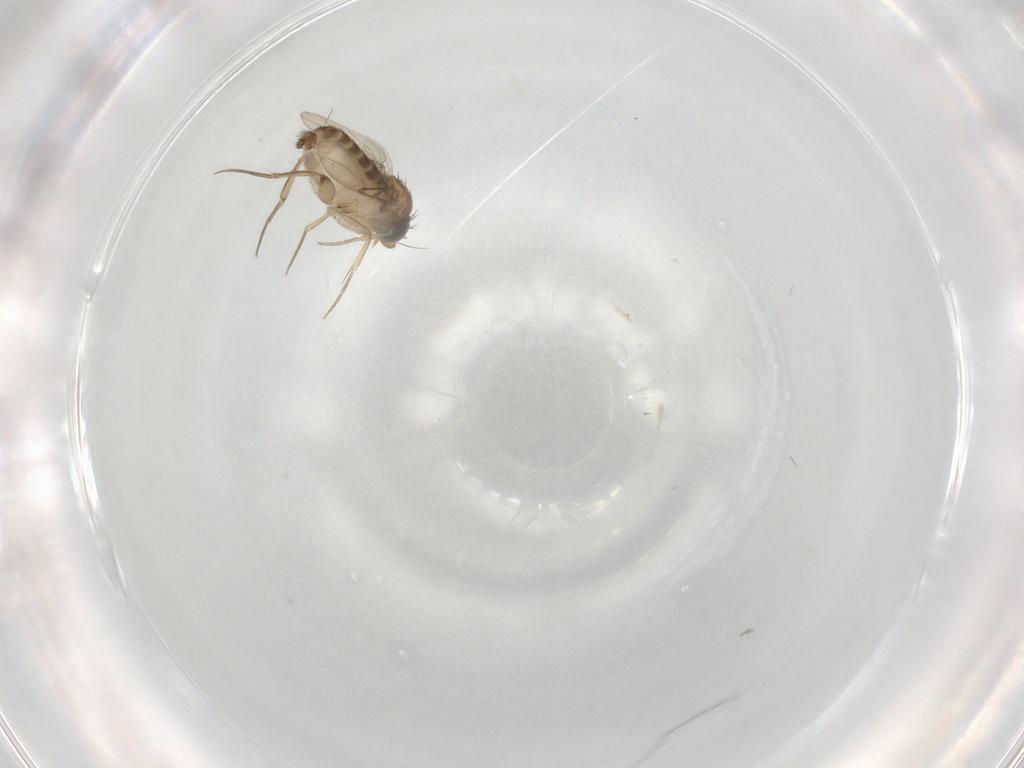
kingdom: Animalia
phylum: Arthropoda
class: Insecta
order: Diptera
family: Phoridae
